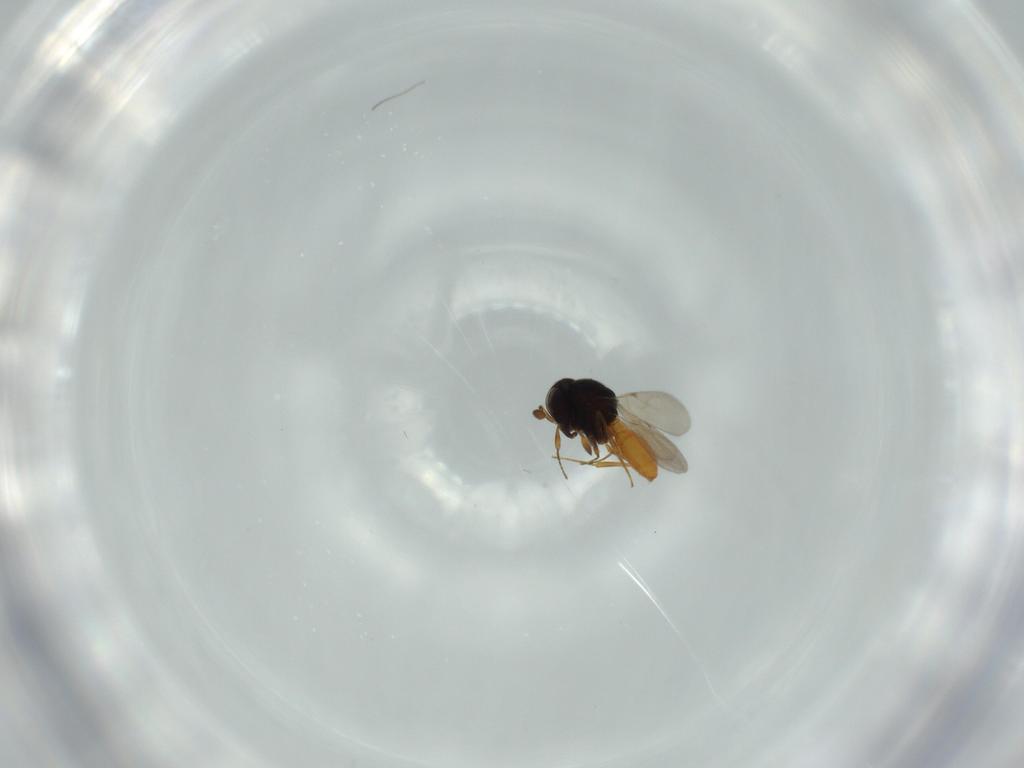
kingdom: Animalia
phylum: Arthropoda
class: Insecta
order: Hymenoptera
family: Scelionidae
